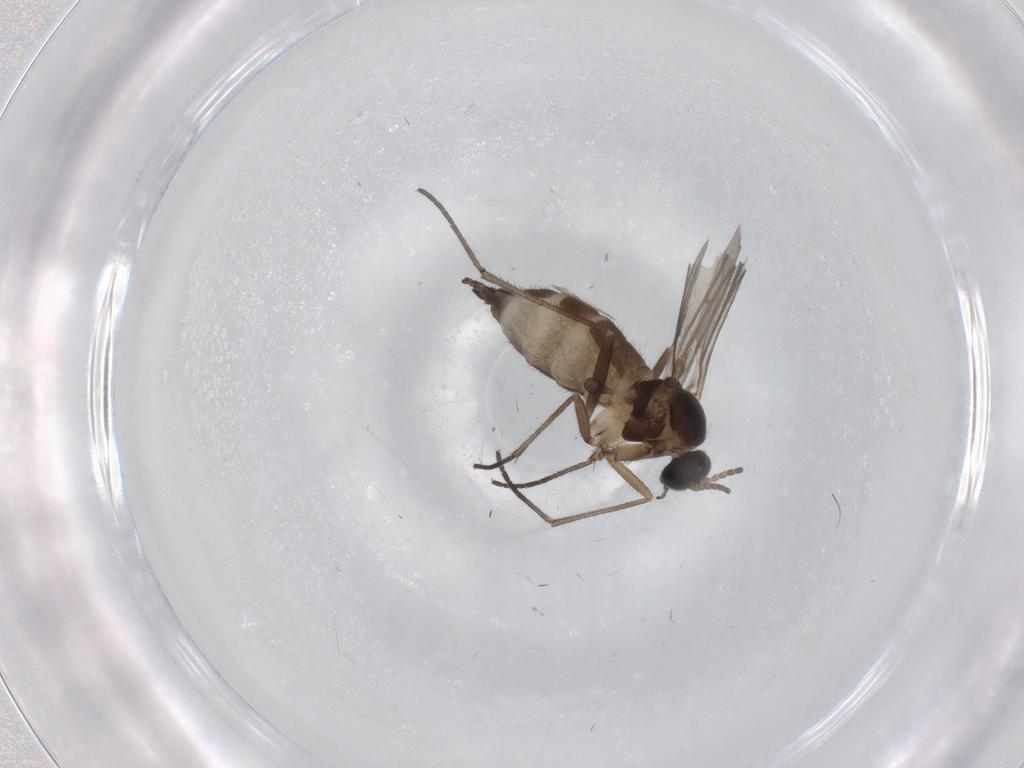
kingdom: Animalia
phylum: Arthropoda
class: Insecta
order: Diptera
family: Sciaridae
